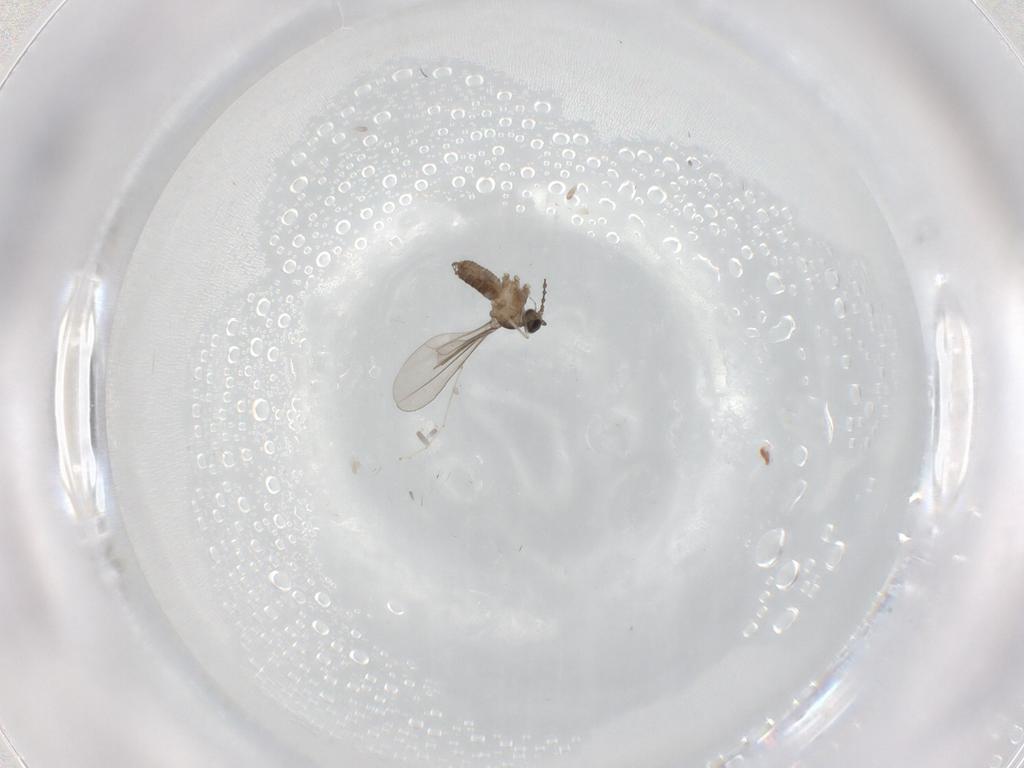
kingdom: Animalia
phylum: Arthropoda
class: Insecta
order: Diptera
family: Cecidomyiidae
